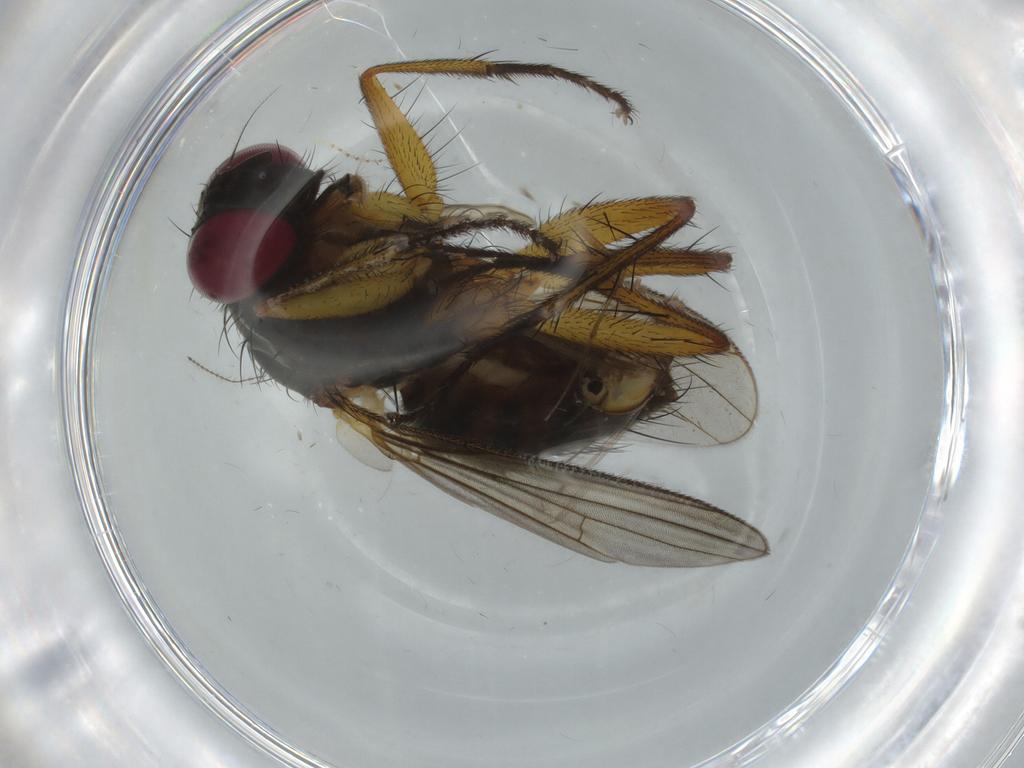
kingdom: Animalia
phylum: Arthropoda
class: Insecta
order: Diptera
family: Muscidae
